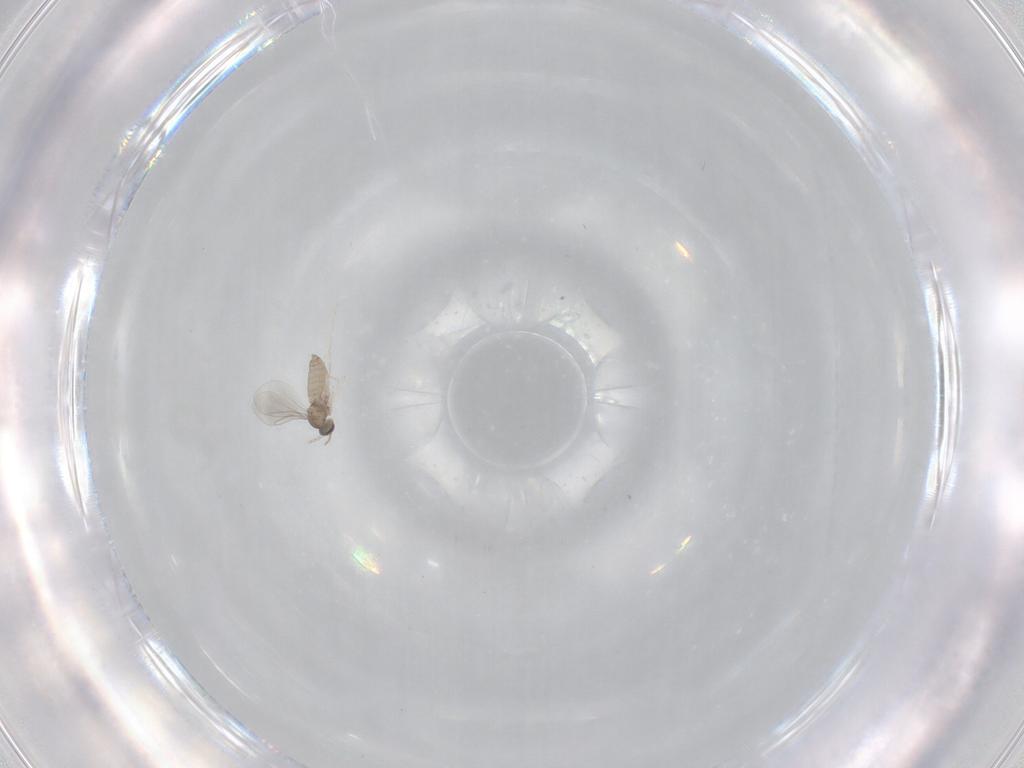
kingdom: Animalia
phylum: Arthropoda
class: Insecta
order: Diptera
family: Cecidomyiidae
